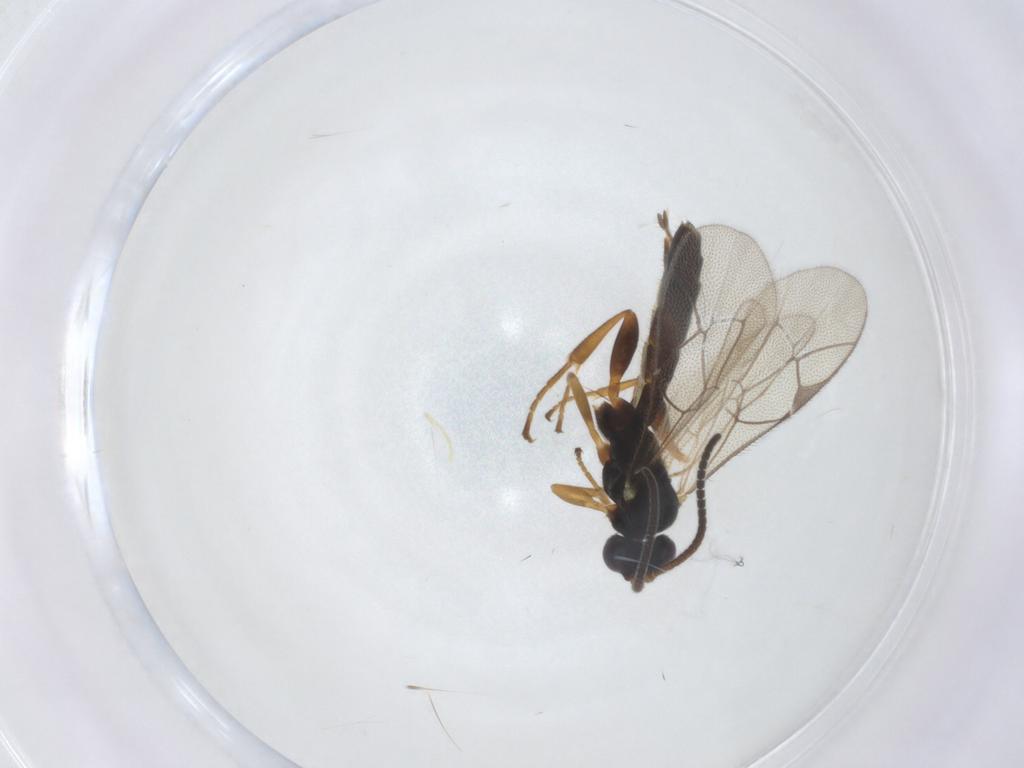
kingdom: Animalia
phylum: Arthropoda
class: Insecta
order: Hymenoptera
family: Ichneumonidae
